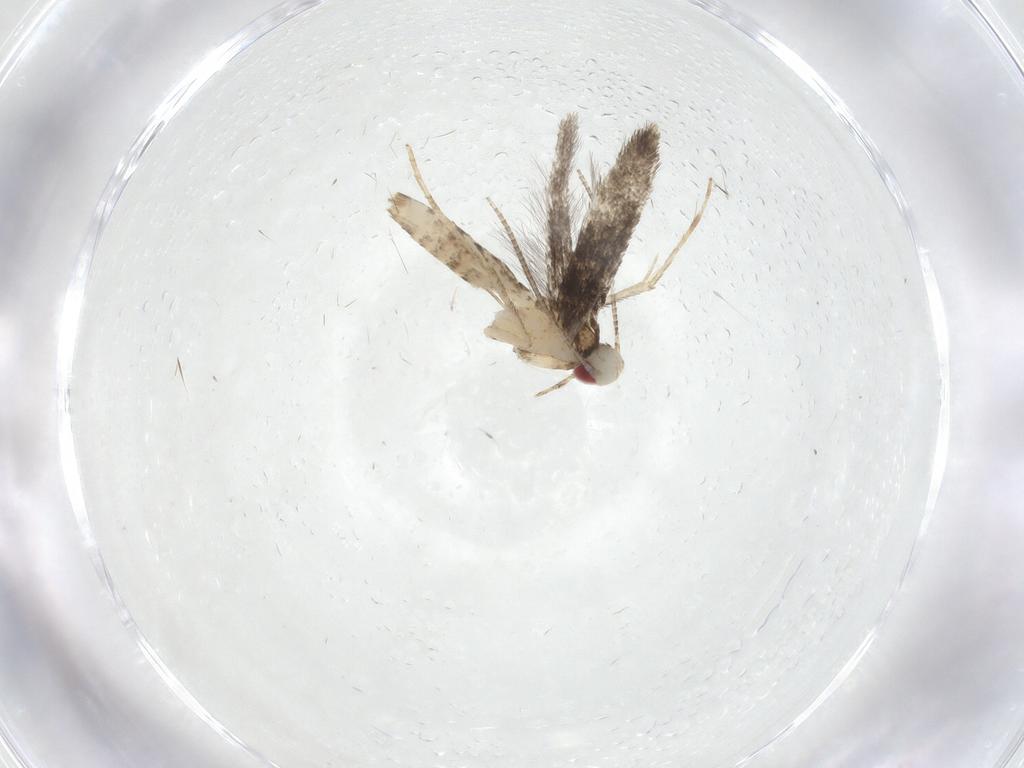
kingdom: Animalia
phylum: Arthropoda
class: Insecta
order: Lepidoptera
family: Gracillariidae
